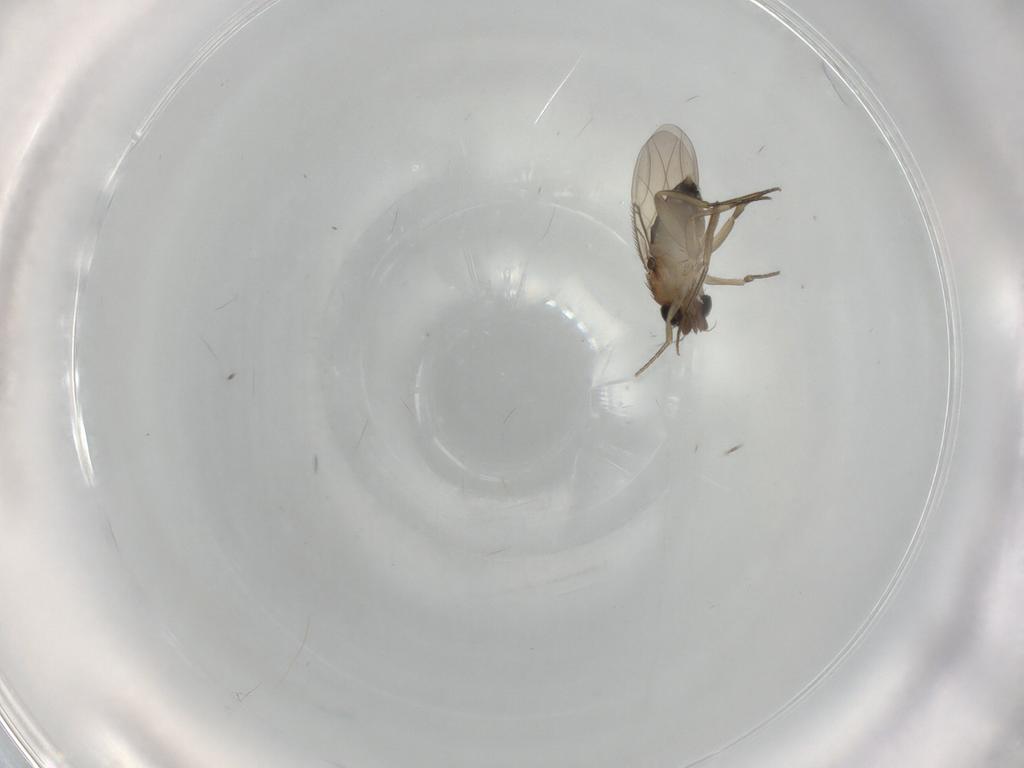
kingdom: Animalia
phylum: Arthropoda
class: Insecta
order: Diptera
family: Phoridae
